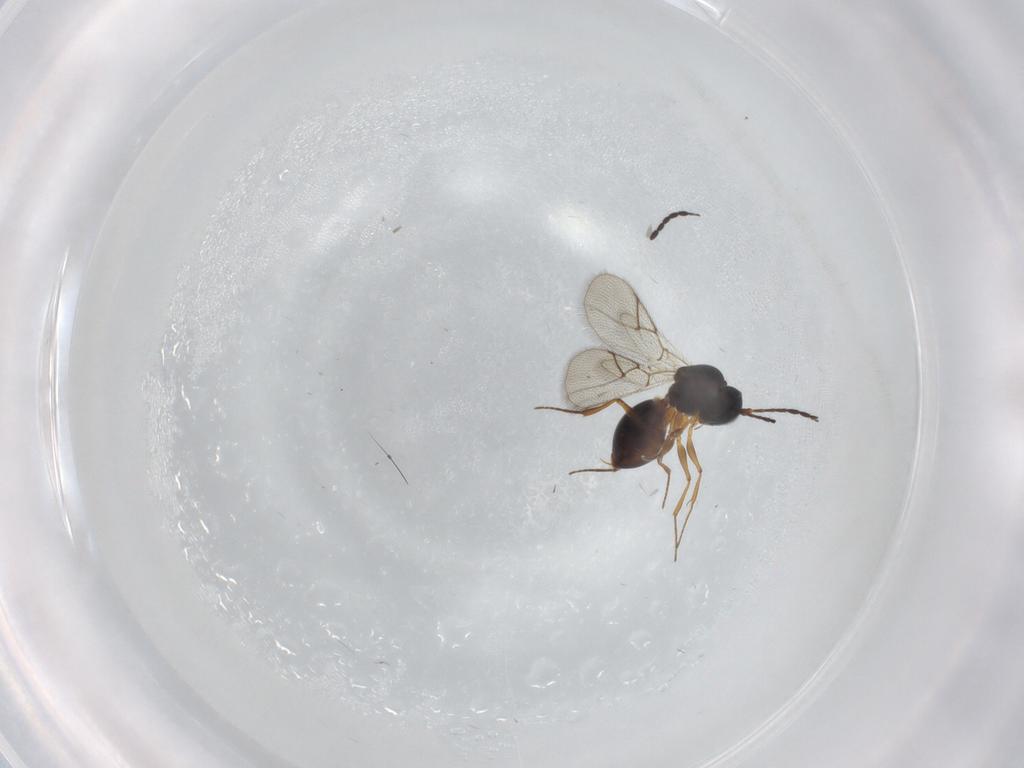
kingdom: Animalia
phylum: Arthropoda
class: Insecta
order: Hymenoptera
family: Figitidae
